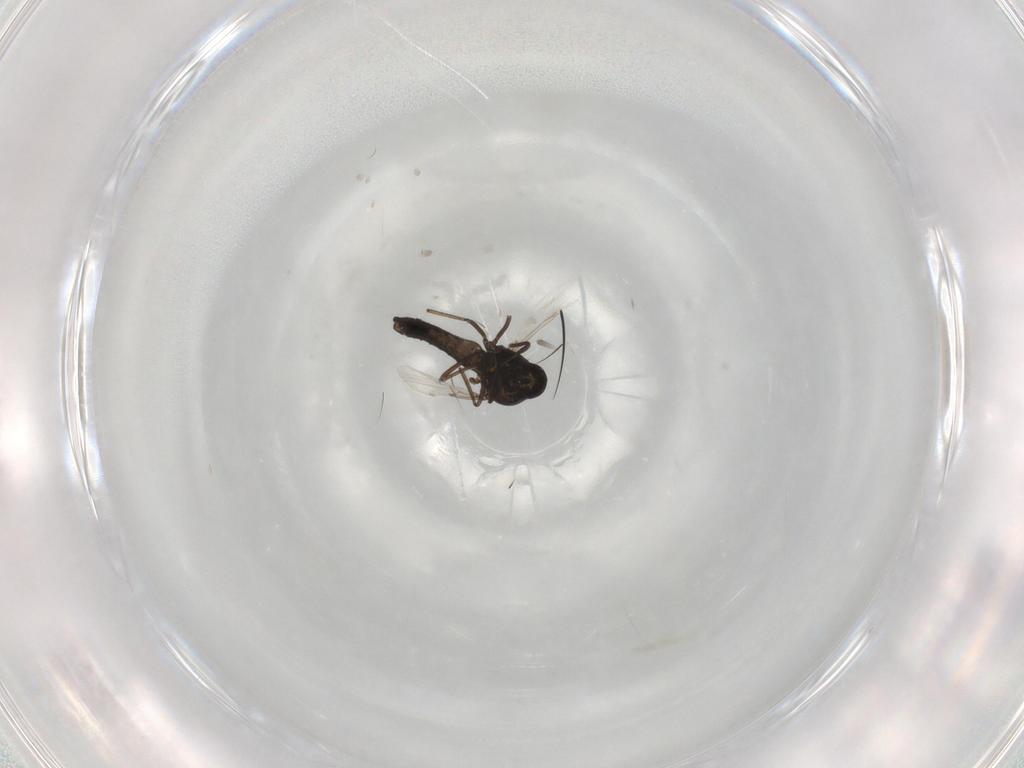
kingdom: Animalia
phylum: Arthropoda
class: Insecta
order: Diptera
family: Ceratopogonidae
